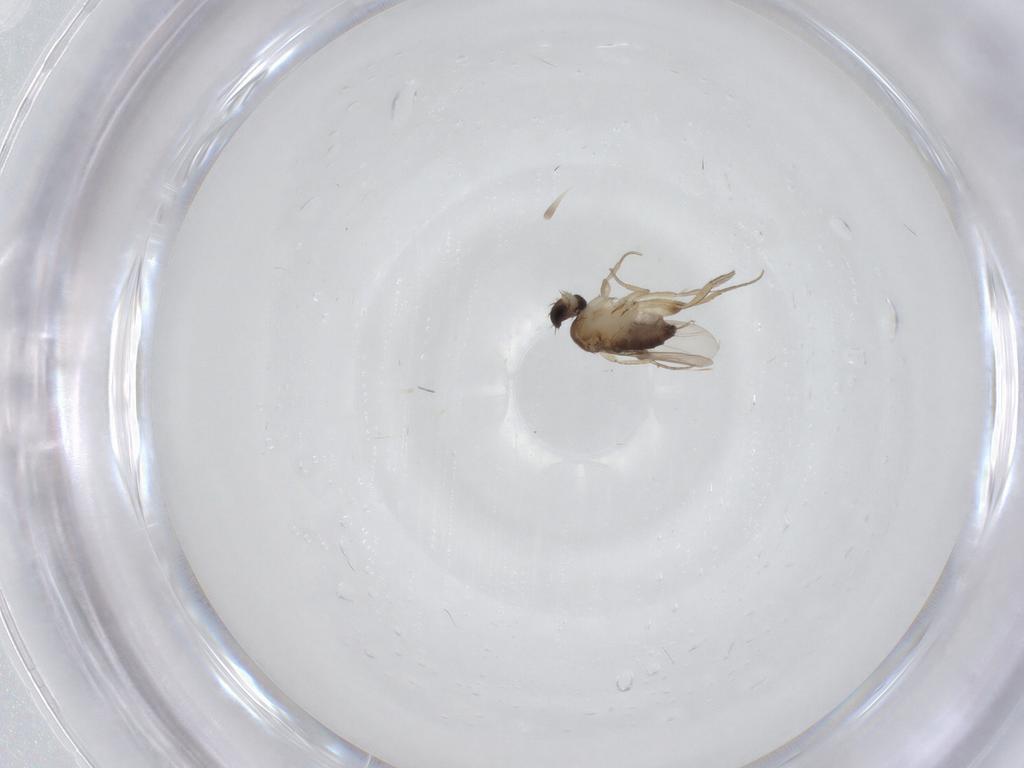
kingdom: Animalia
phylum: Arthropoda
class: Insecta
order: Diptera
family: Phoridae
